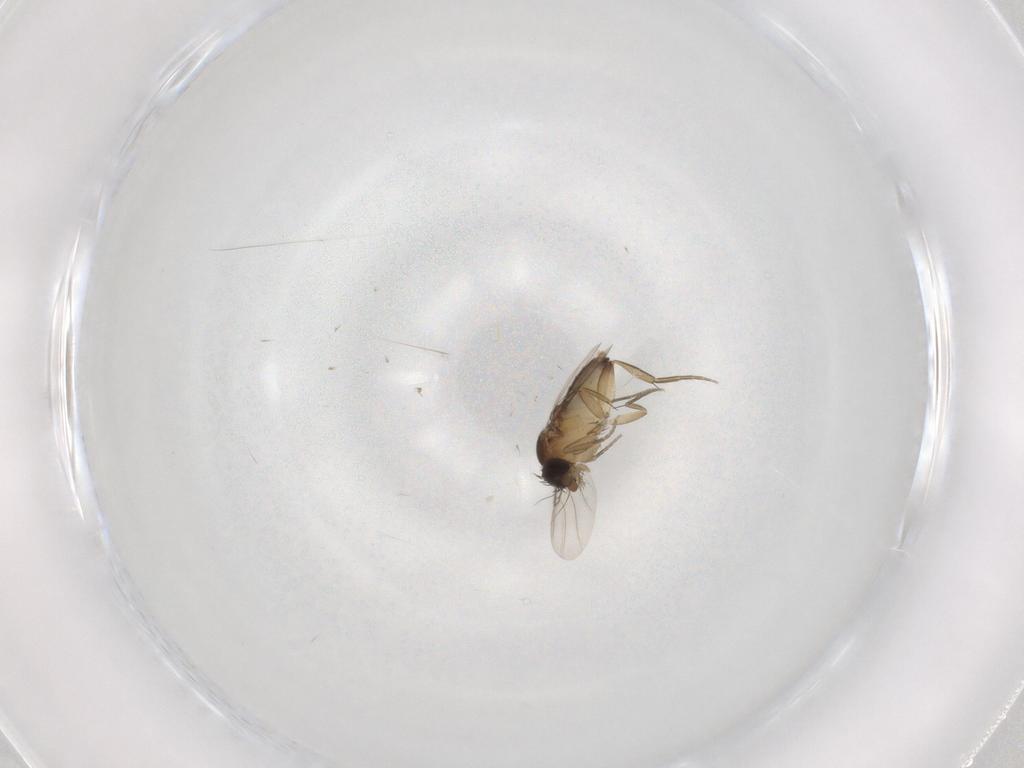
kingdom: Animalia
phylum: Arthropoda
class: Insecta
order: Diptera
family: Phoridae
